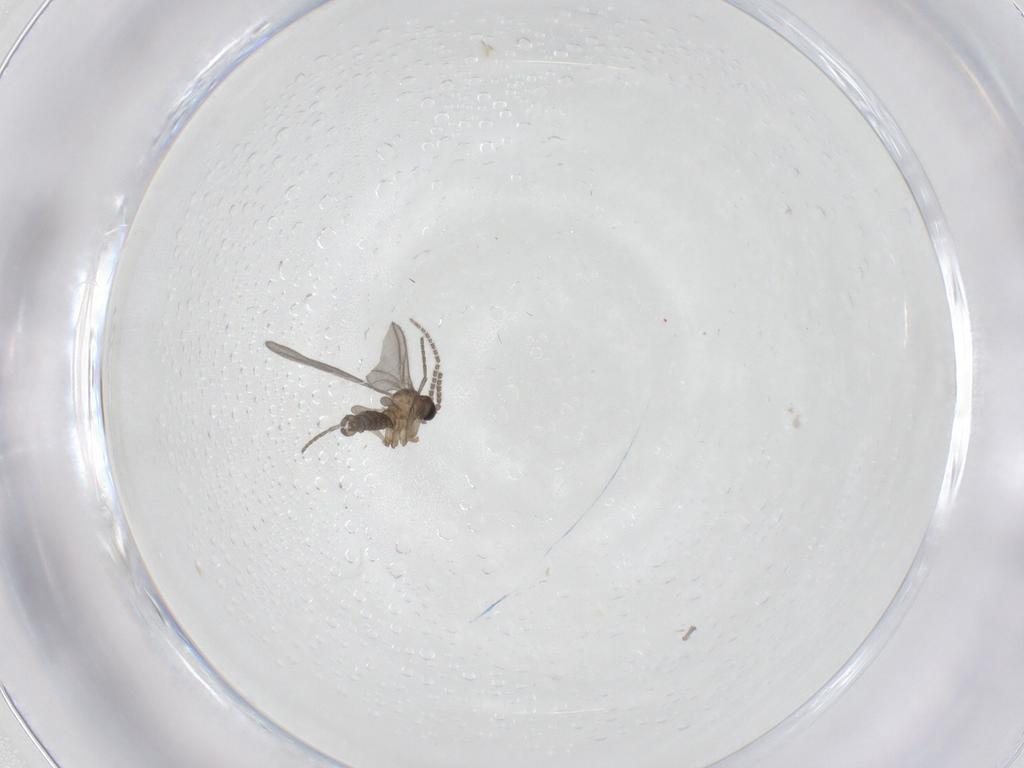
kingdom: Animalia
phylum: Arthropoda
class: Insecta
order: Diptera
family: Sciaridae
